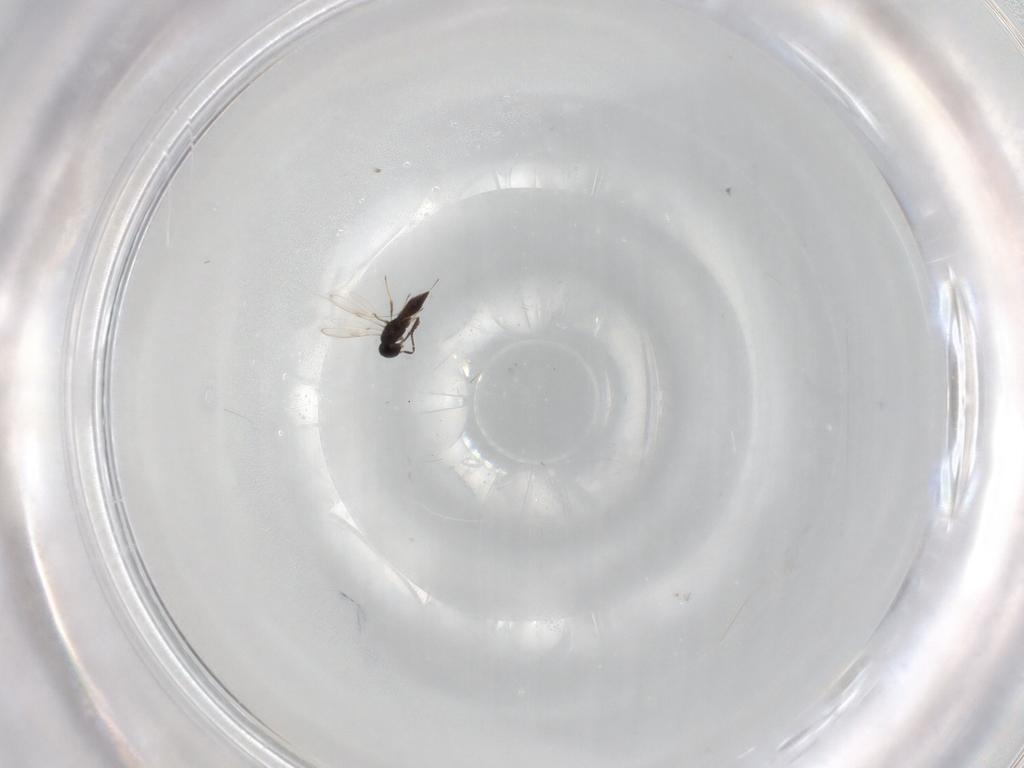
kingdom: Animalia
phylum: Arthropoda
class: Insecta
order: Hymenoptera
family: Scelionidae
